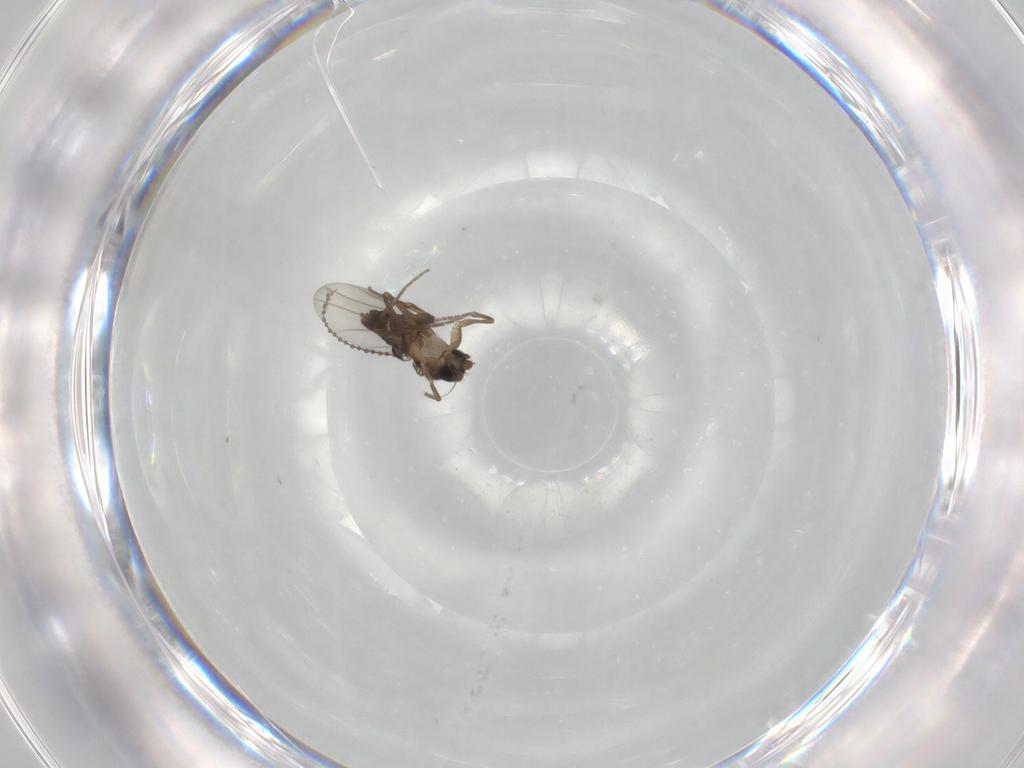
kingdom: Animalia
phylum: Arthropoda
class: Insecta
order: Diptera
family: Cecidomyiidae
